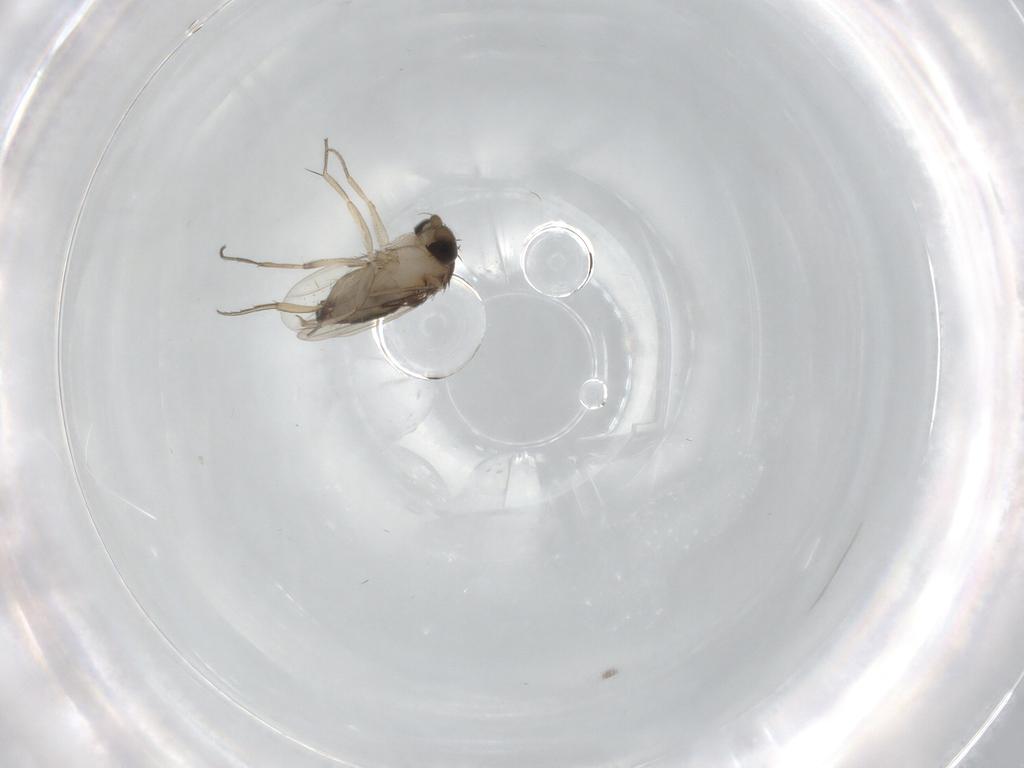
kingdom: Animalia
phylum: Arthropoda
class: Insecta
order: Diptera
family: Phoridae
